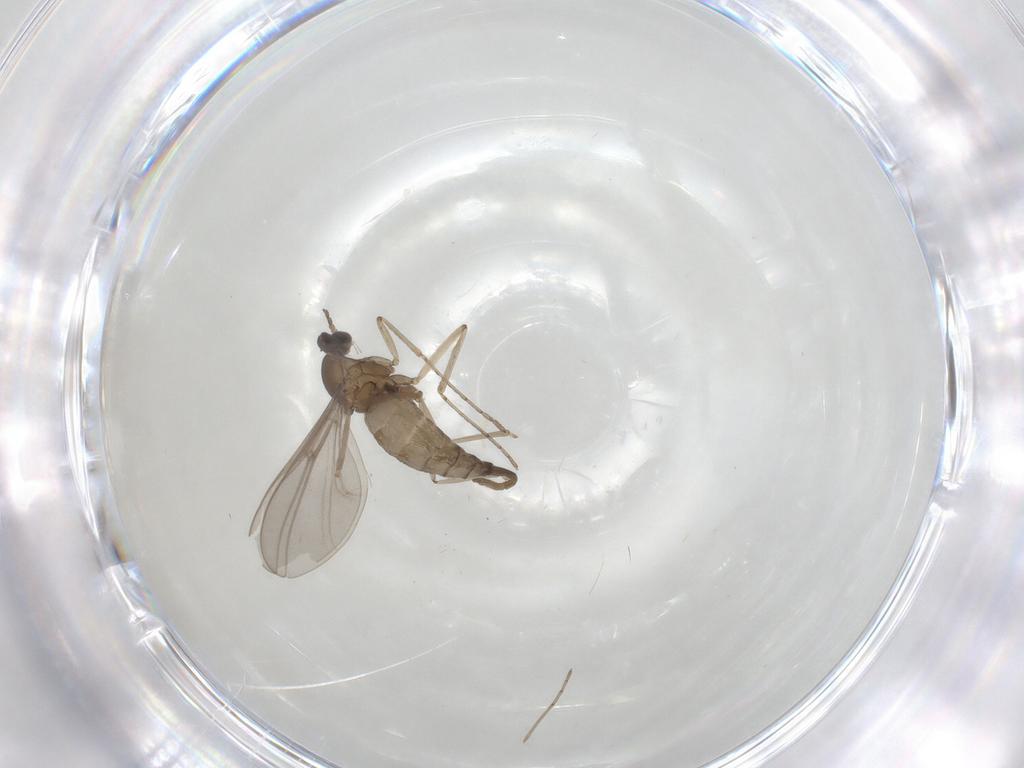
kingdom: Animalia
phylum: Arthropoda
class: Insecta
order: Diptera
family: Cecidomyiidae
